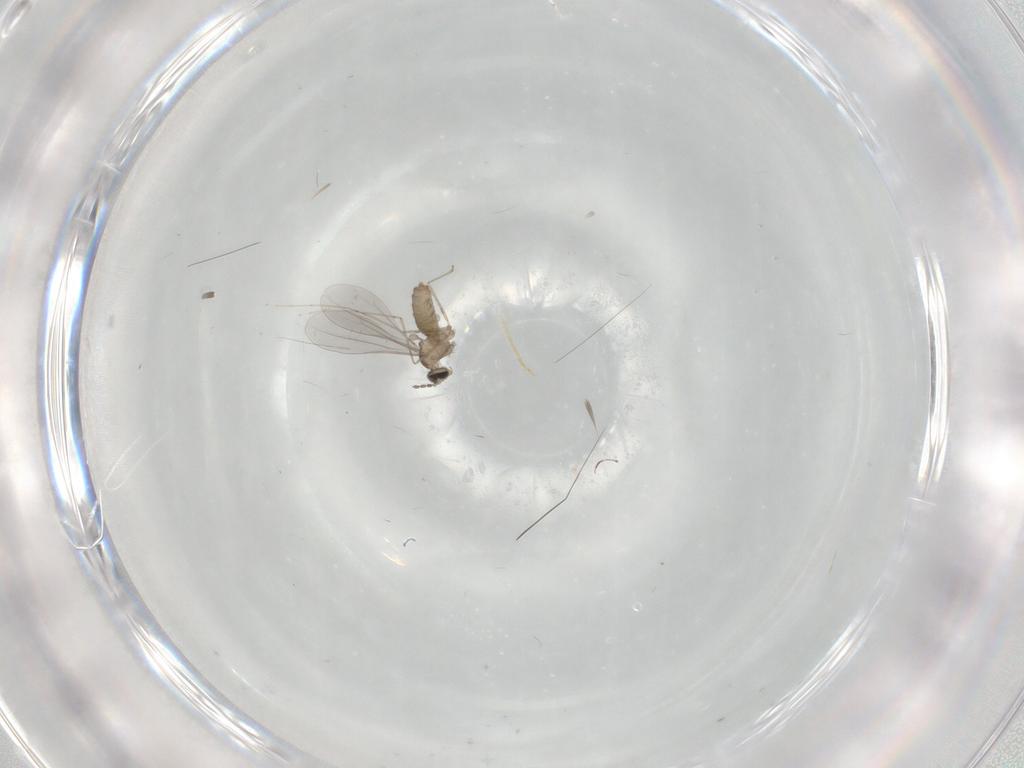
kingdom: Animalia
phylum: Arthropoda
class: Insecta
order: Diptera
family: Cecidomyiidae
